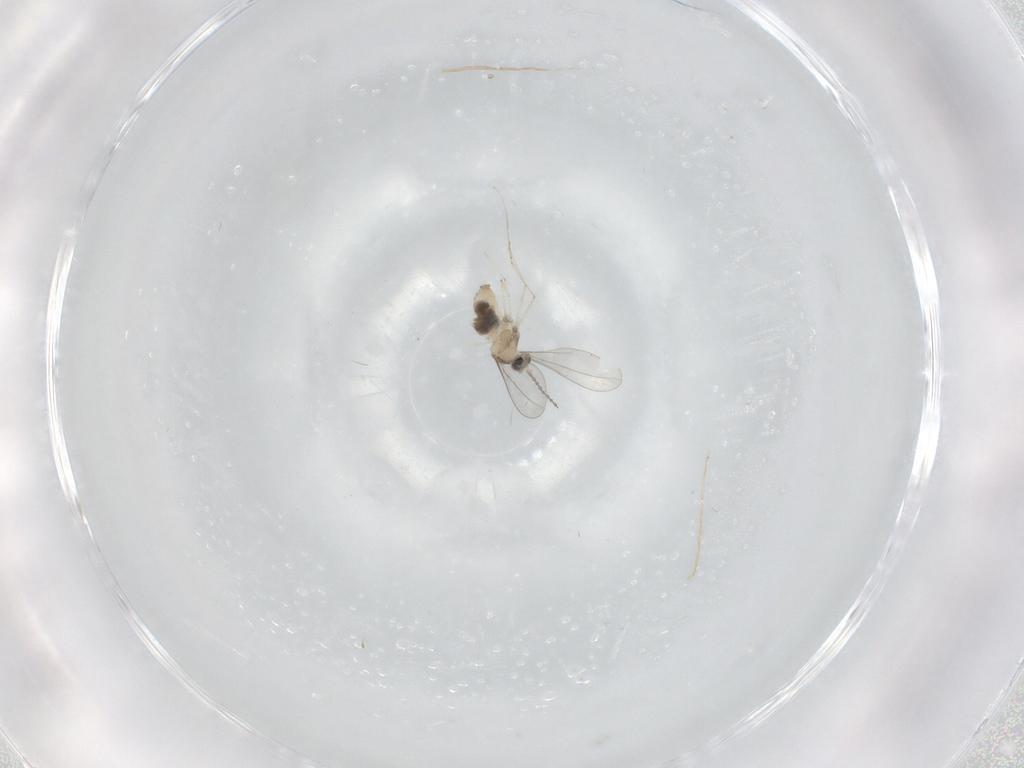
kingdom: Animalia
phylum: Arthropoda
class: Insecta
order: Diptera
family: Cecidomyiidae
